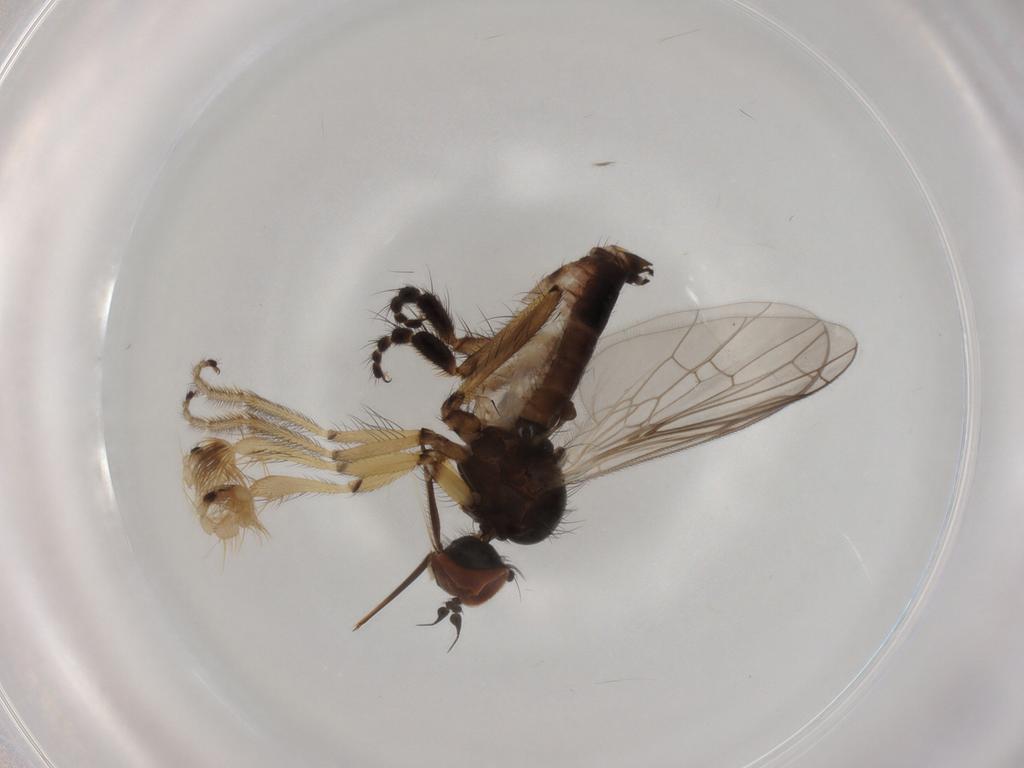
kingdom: Animalia
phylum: Arthropoda
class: Insecta
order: Diptera
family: Empididae
